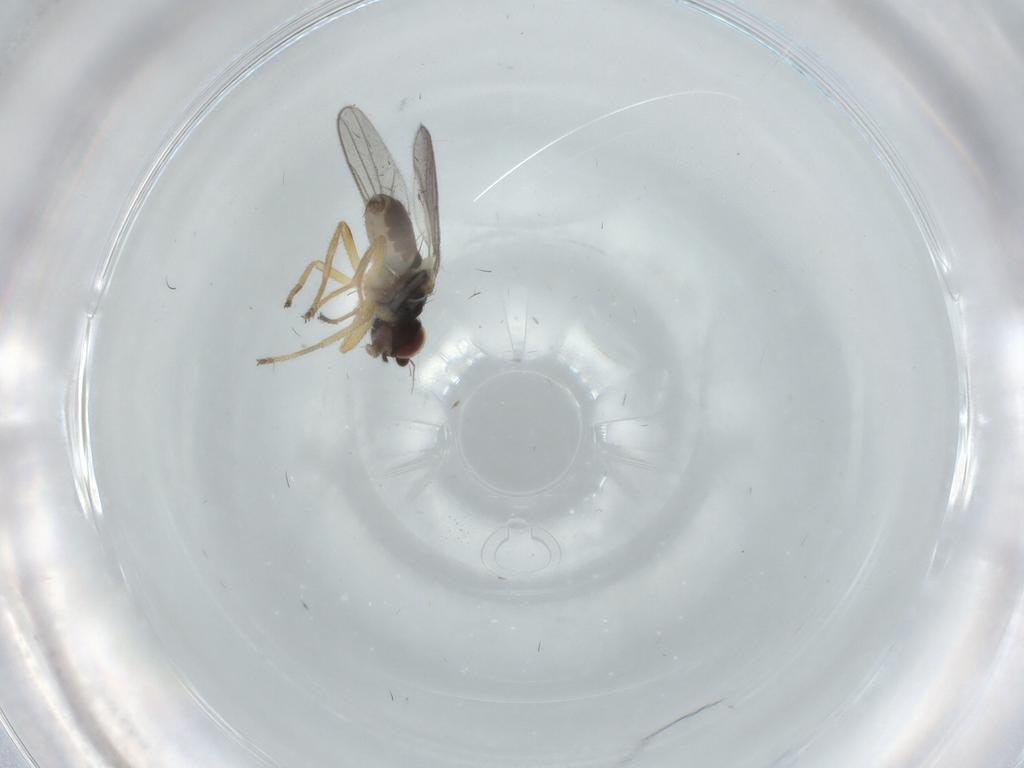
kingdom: Animalia
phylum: Arthropoda
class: Insecta
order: Diptera
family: Chloropidae
